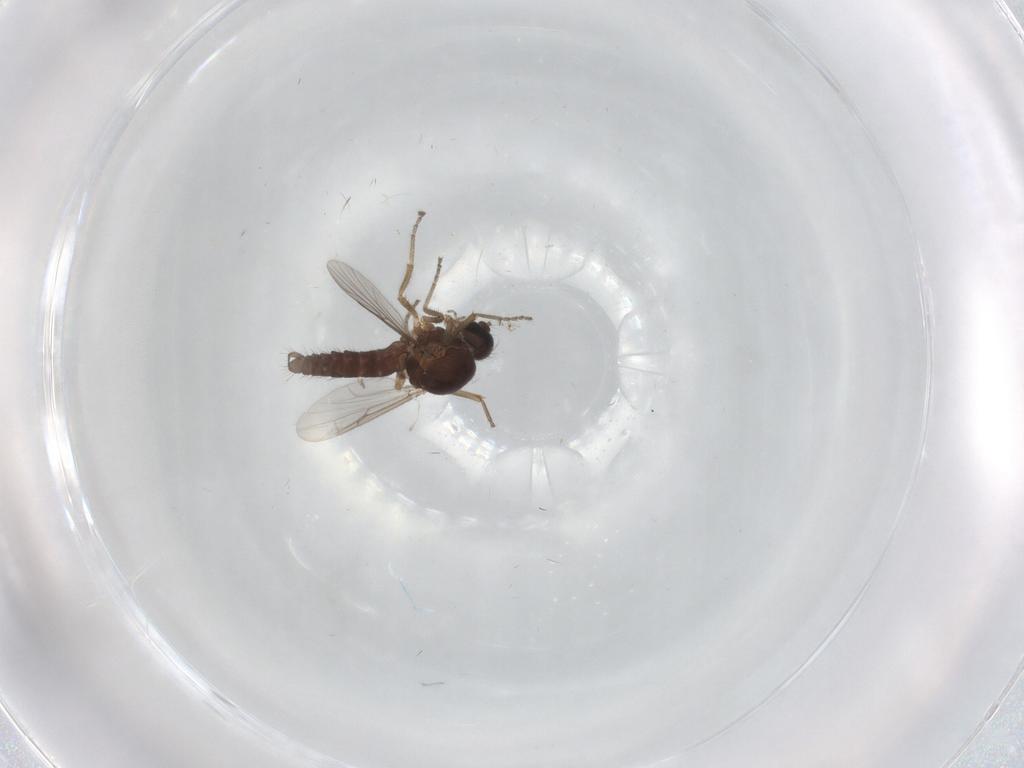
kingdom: Animalia
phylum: Arthropoda
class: Insecta
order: Diptera
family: Ceratopogonidae
